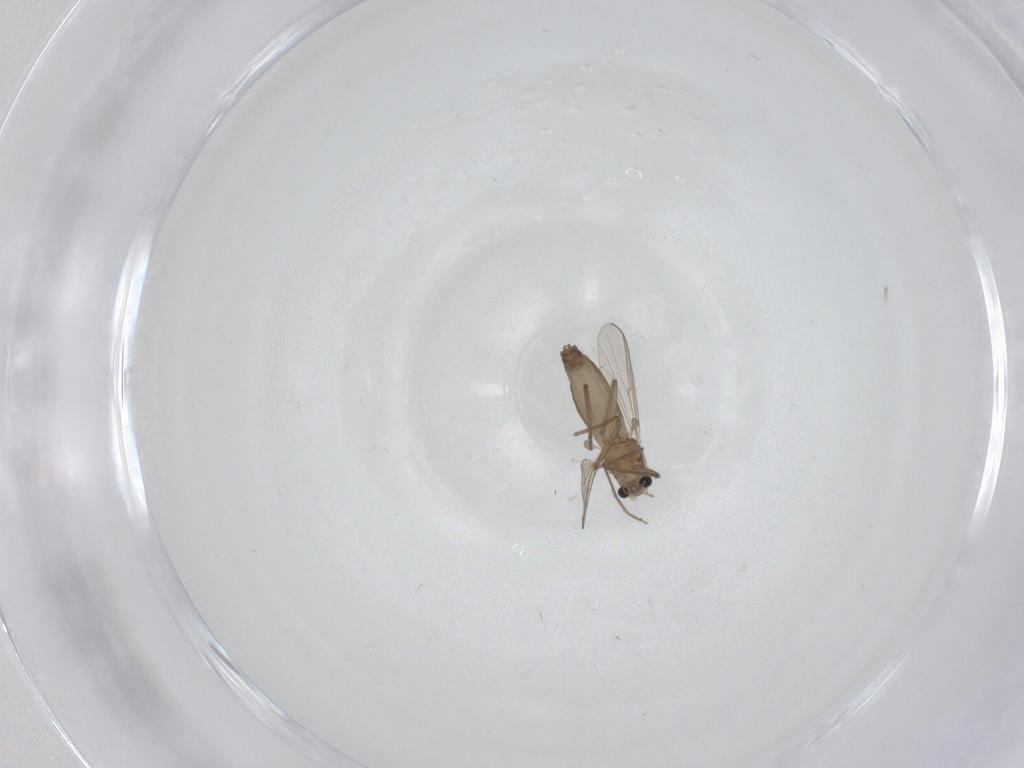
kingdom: Animalia
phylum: Arthropoda
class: Insecta
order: Diptera
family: Chironomidae
